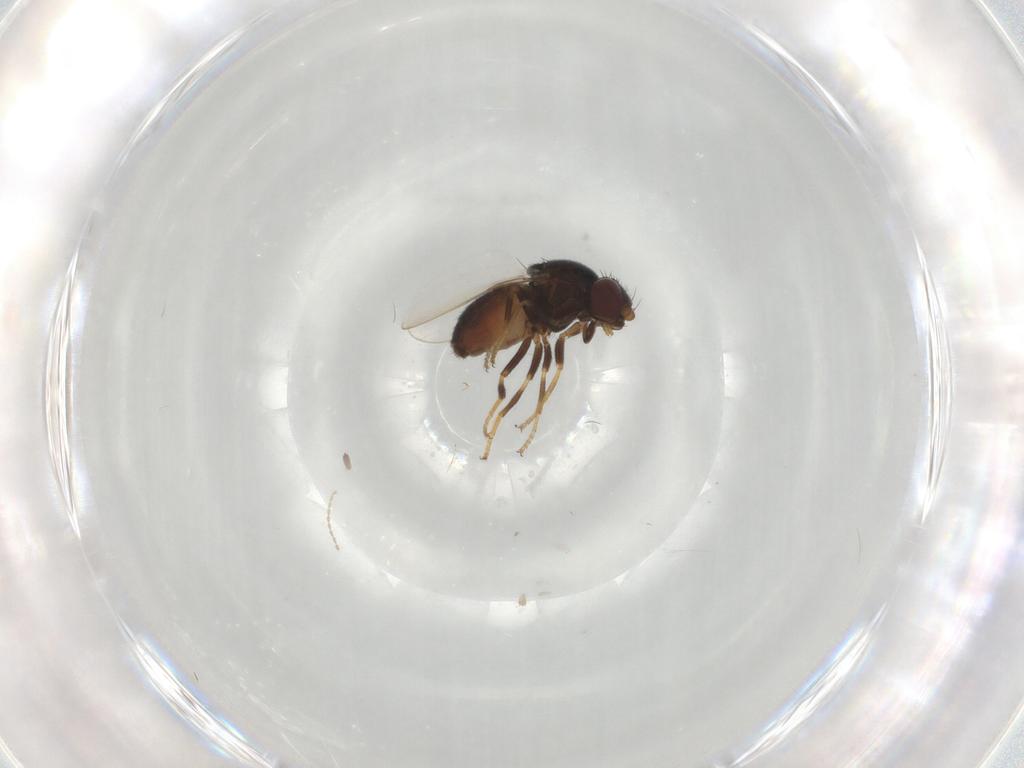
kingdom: Animalia
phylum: Arthropoda
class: Insecta
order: Diptera
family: Chloropidae
